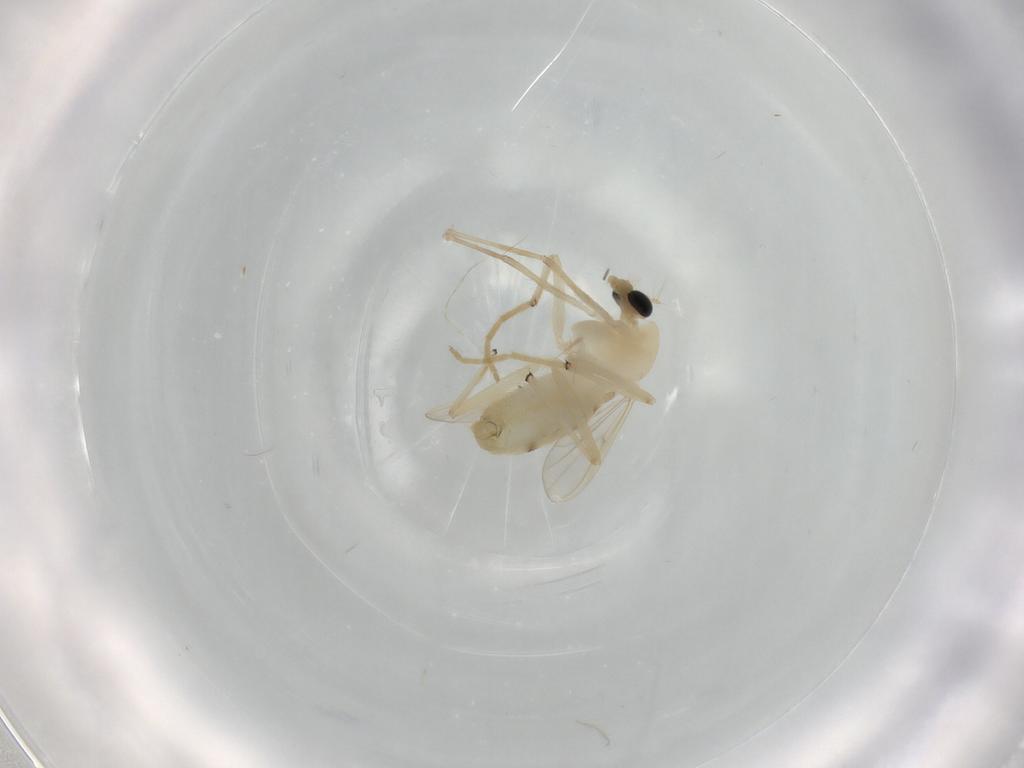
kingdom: Animalia
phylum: Arthropoda
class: Insecta
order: Diptera
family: Chironomidae
